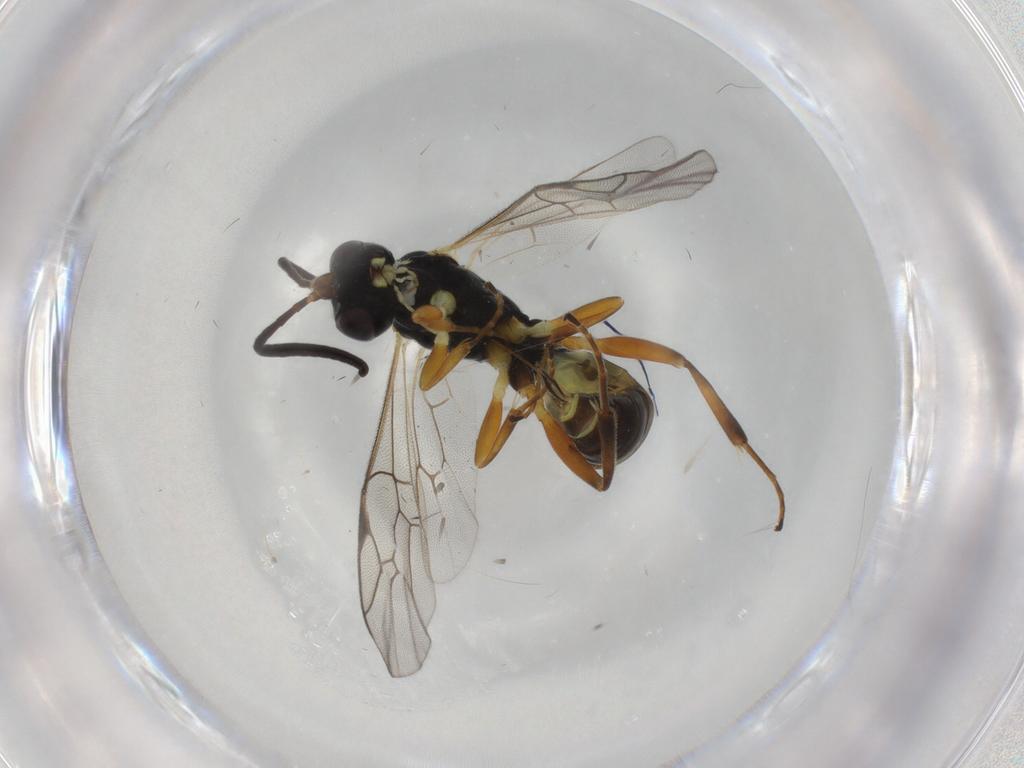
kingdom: Animalia
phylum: Arthropoda
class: Insecta
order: Hymenoptera
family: Ichneumonidae
